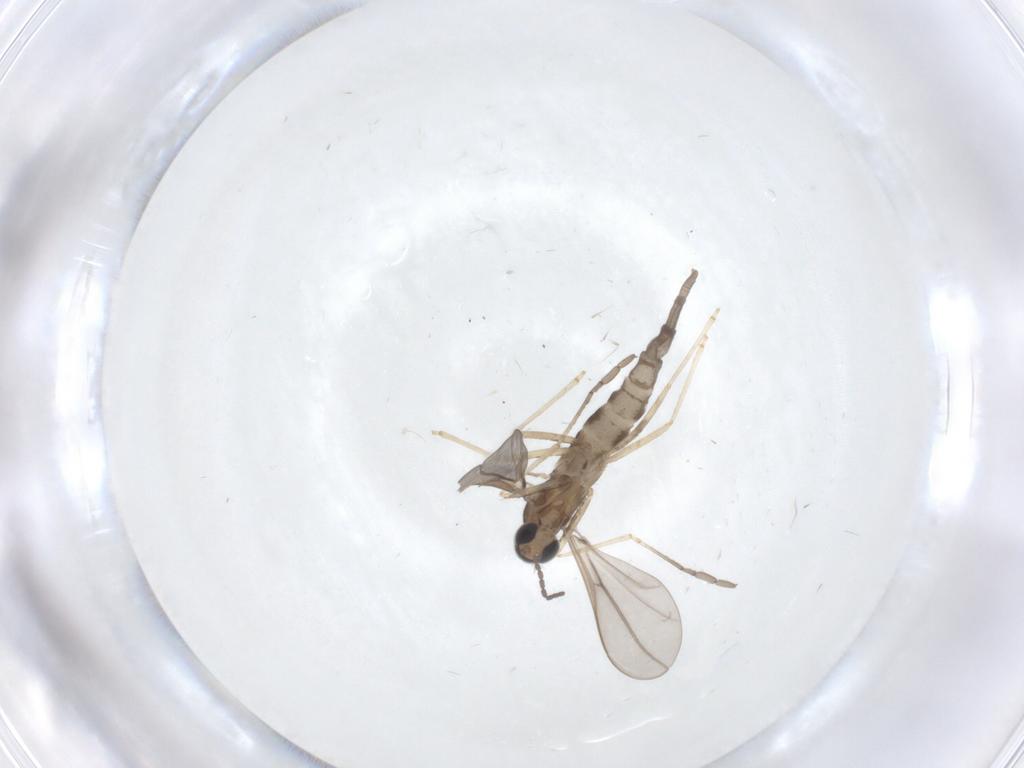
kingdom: Animalia
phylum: Arthropoda
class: Insecta
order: Diptera
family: Cecidomyiidae
